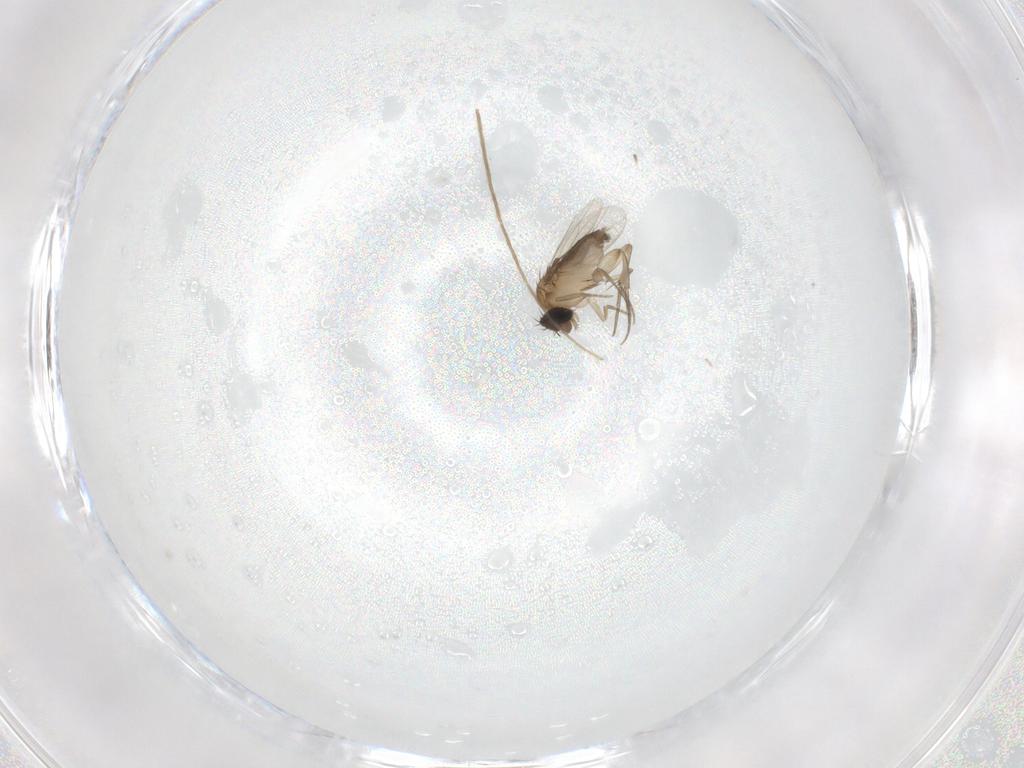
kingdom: Animalia
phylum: Arthropoda
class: Insecta
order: Diptera
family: Phoridae
